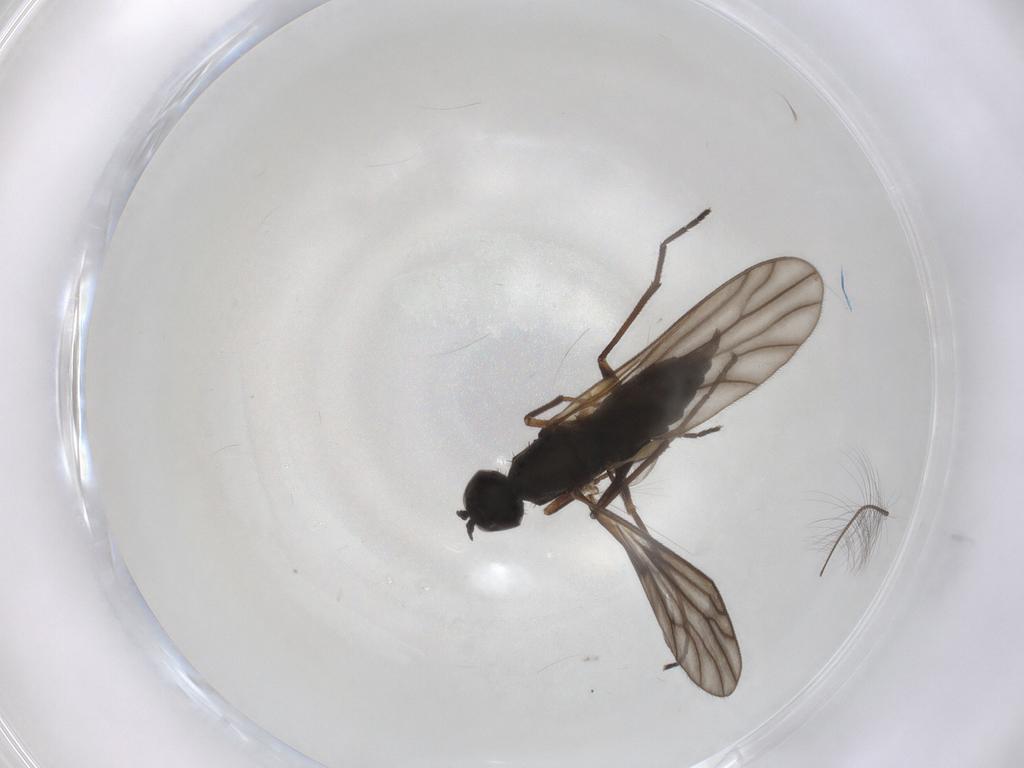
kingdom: Animalia
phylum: Arthropoda
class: Insecta
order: Diptera
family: Empididae
